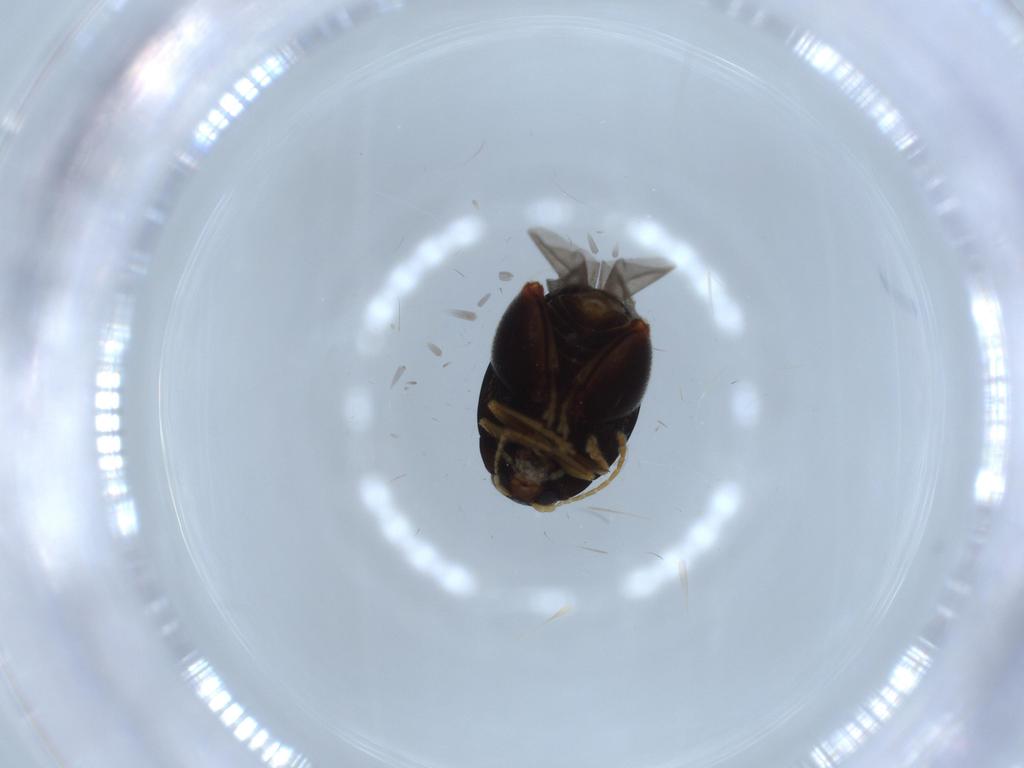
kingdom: Animalia
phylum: Arthropoda
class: Insecta
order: Coleoptera
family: Chrysomelidae
